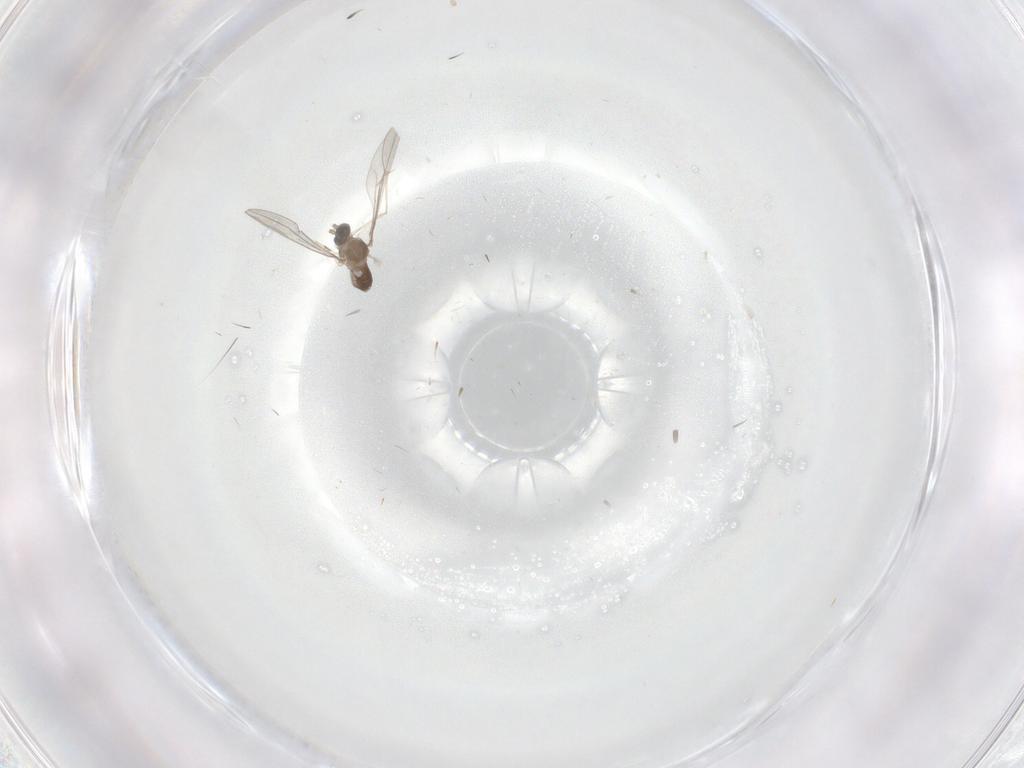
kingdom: Animalia
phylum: Arthropoda
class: Insecta
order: Diptera
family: Cecidomyiidae
